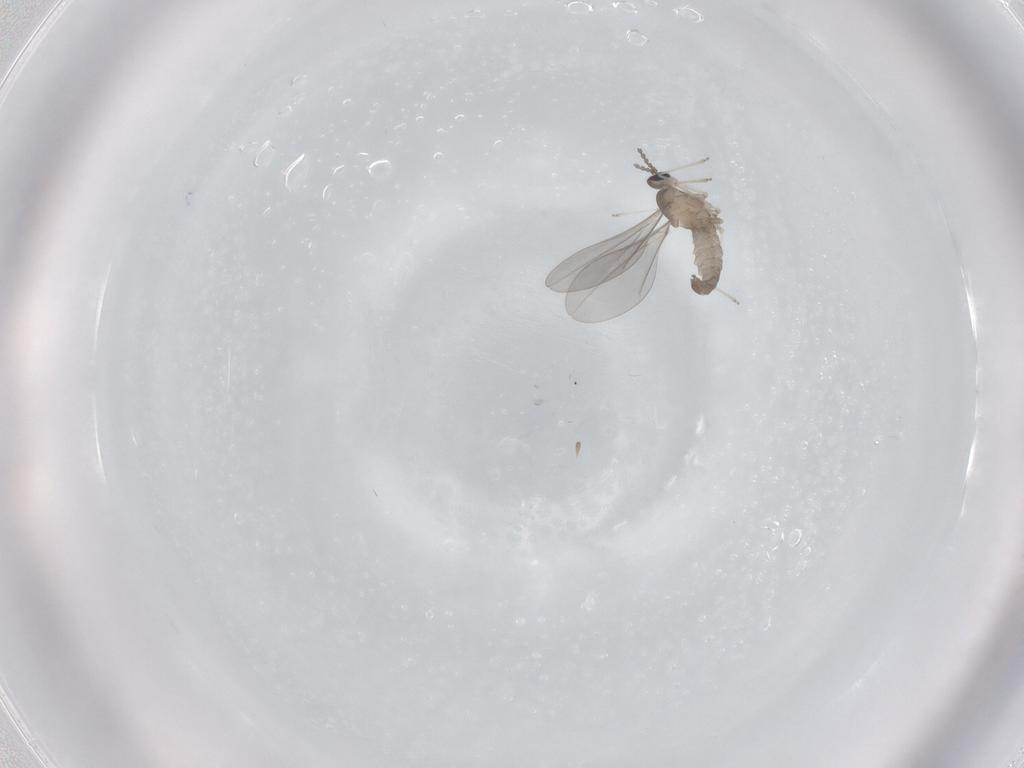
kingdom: Animalia
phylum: Arthropoda
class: Insecta
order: Diptera
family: Cecidomyiidae
